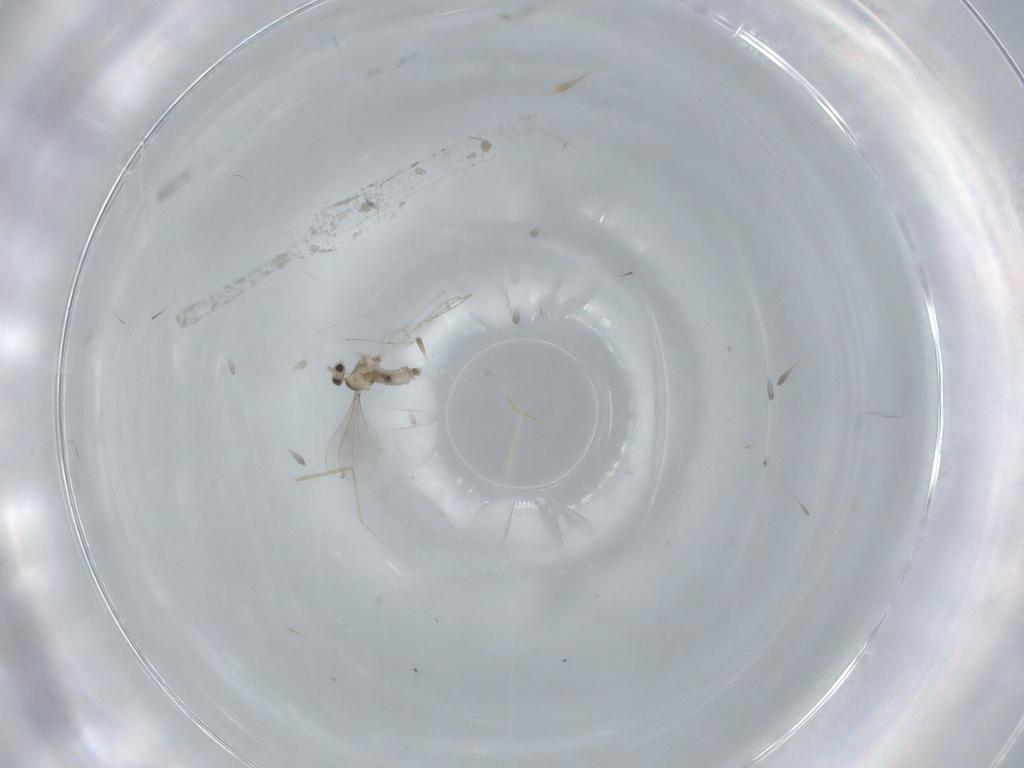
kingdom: Animalia
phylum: Arthropoda
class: Insecta
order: Diptera
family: Cecidomyiidae
